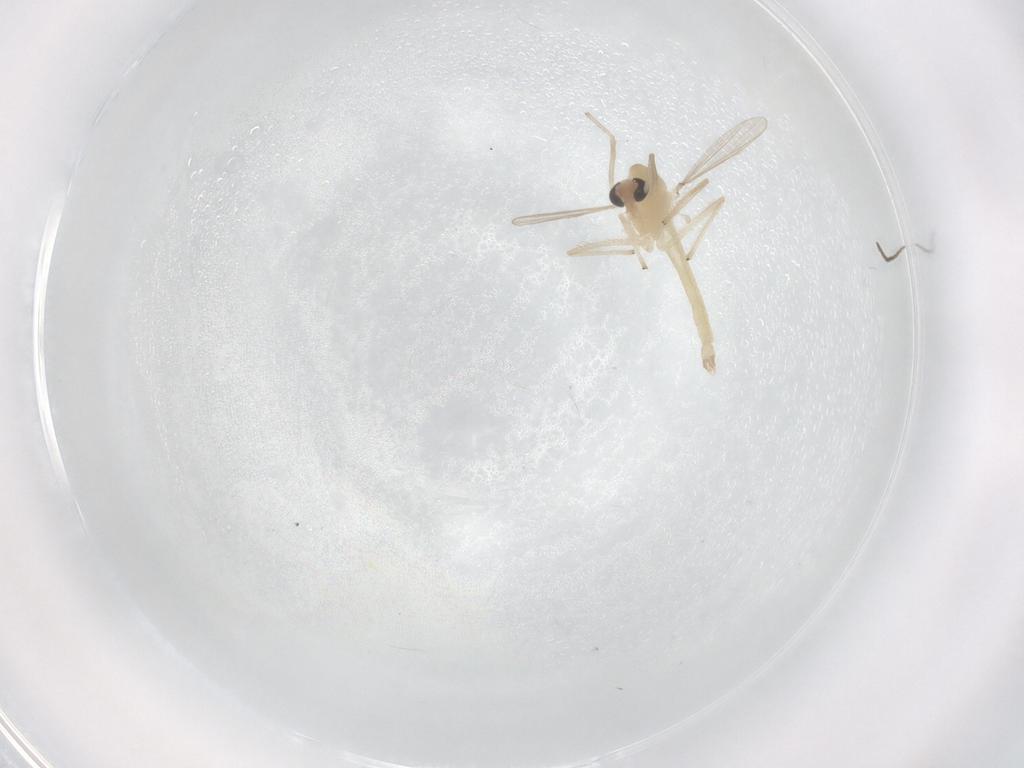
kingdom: Animalia
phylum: Arthropoda
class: Insecta
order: Diptera
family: Chironomidae
